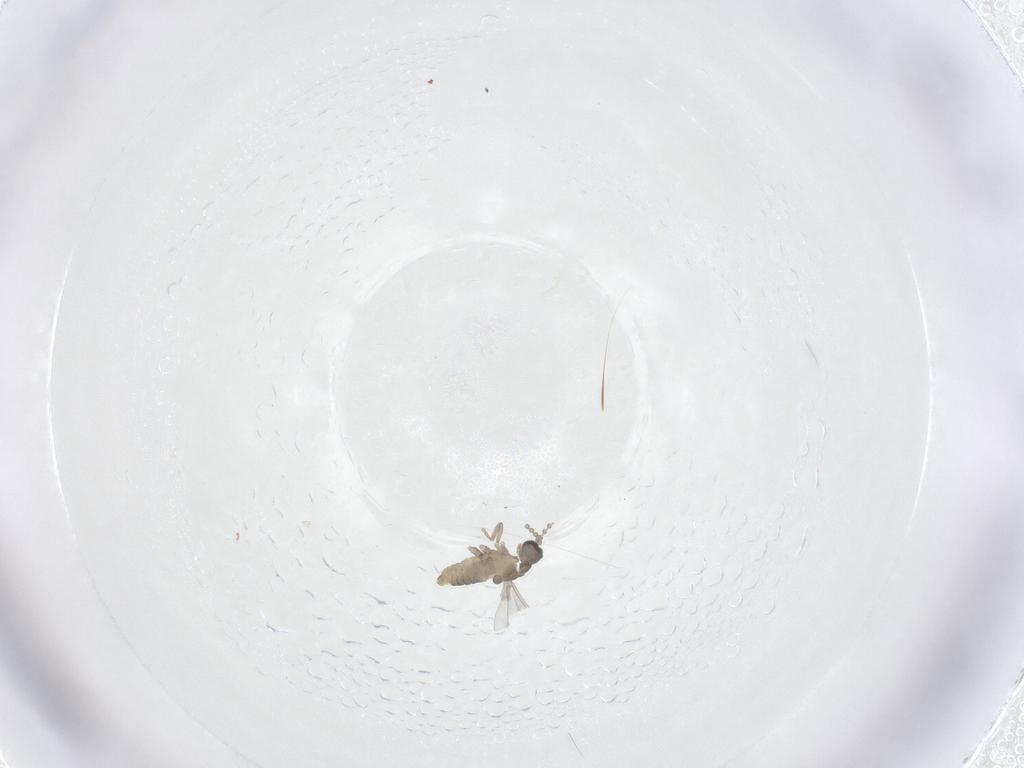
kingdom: Animalia
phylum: Arthropoda
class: Insecta
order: Diptera
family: Cecidomyiidae
